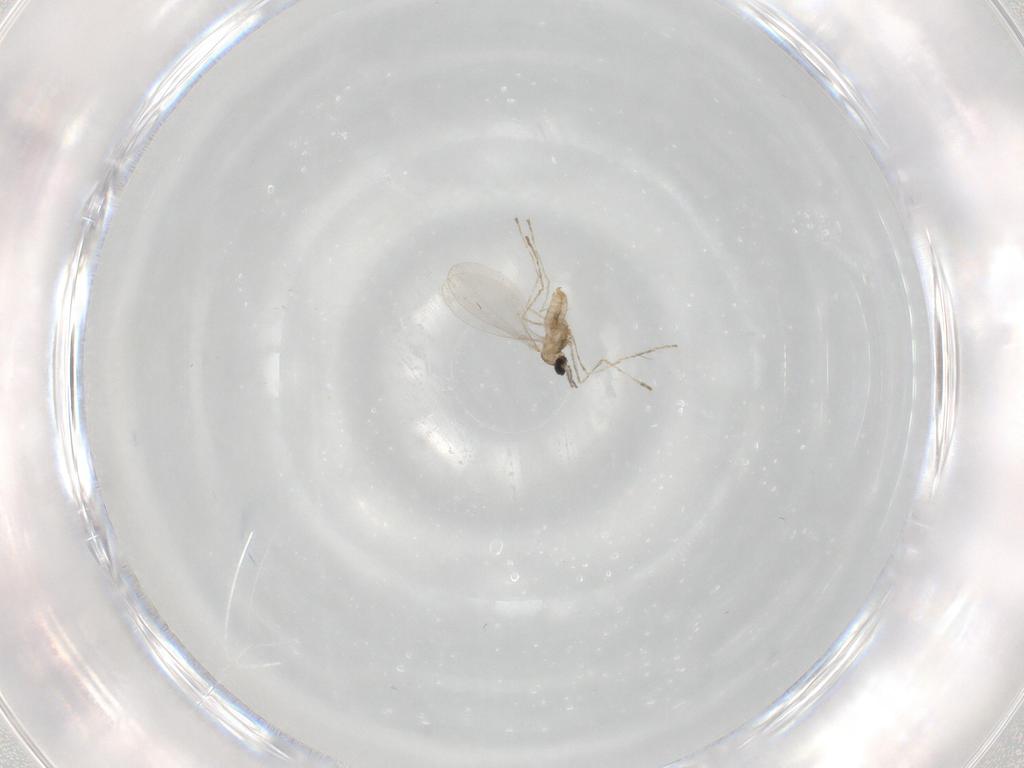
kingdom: Animalia
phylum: Arthropoda
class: Insecta
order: Diptera
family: Cecidomyiidae
